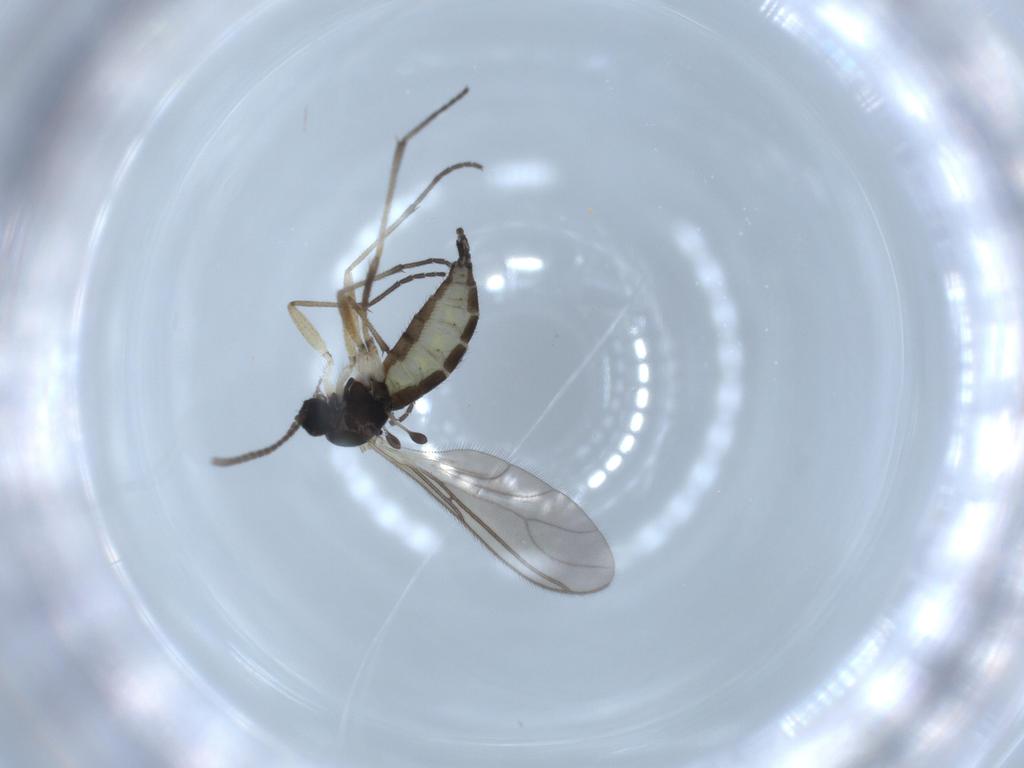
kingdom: Animalia
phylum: Arthropoda
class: Insecta
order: Diptera
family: Sciaridae
